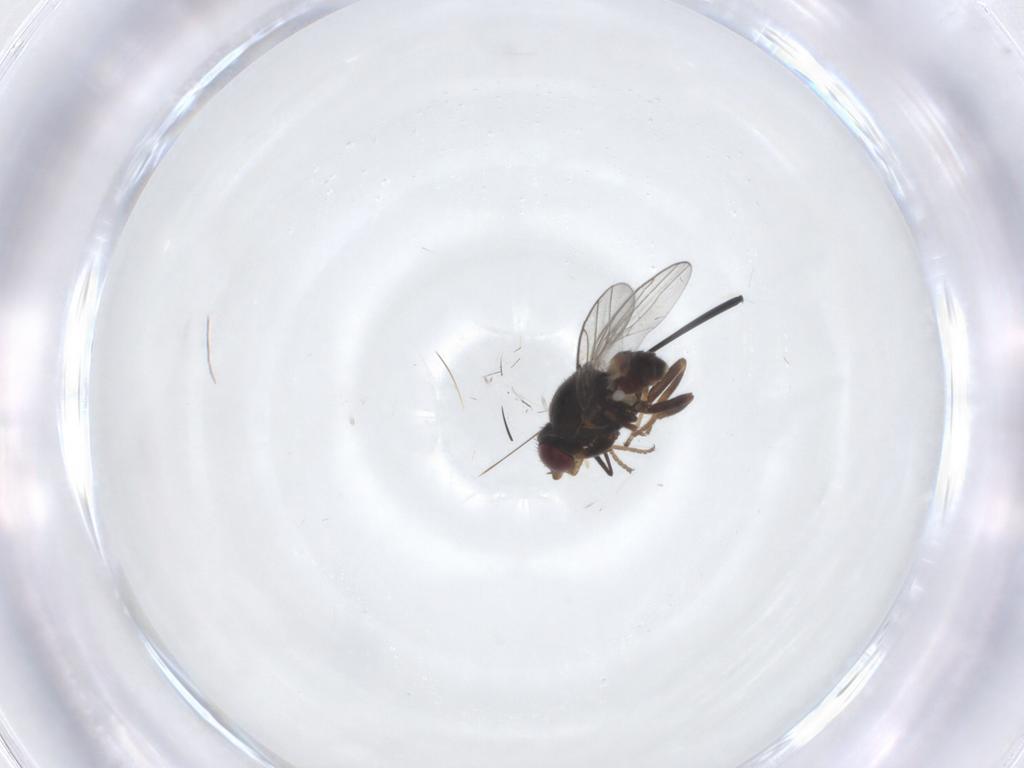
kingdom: Animalia
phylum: Arthropoda
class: Insecta
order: Diptera
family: Chloropidae
